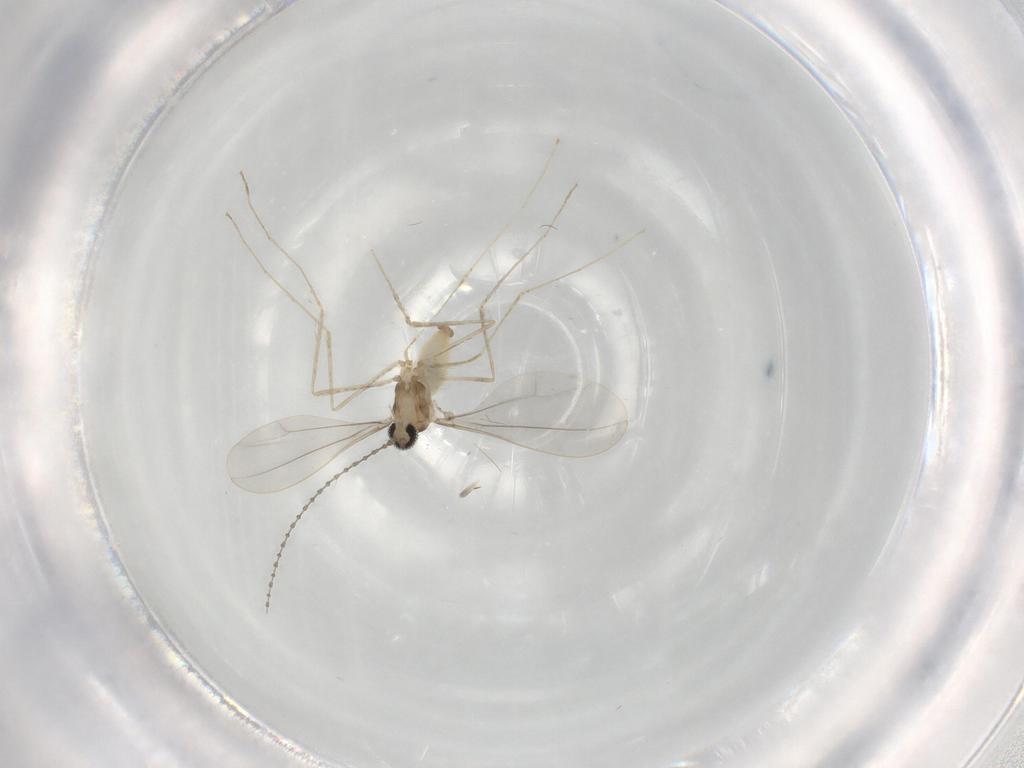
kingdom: Animalia
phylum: Arthropoda
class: Insecta
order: Diptera
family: Cecidomyiidae
